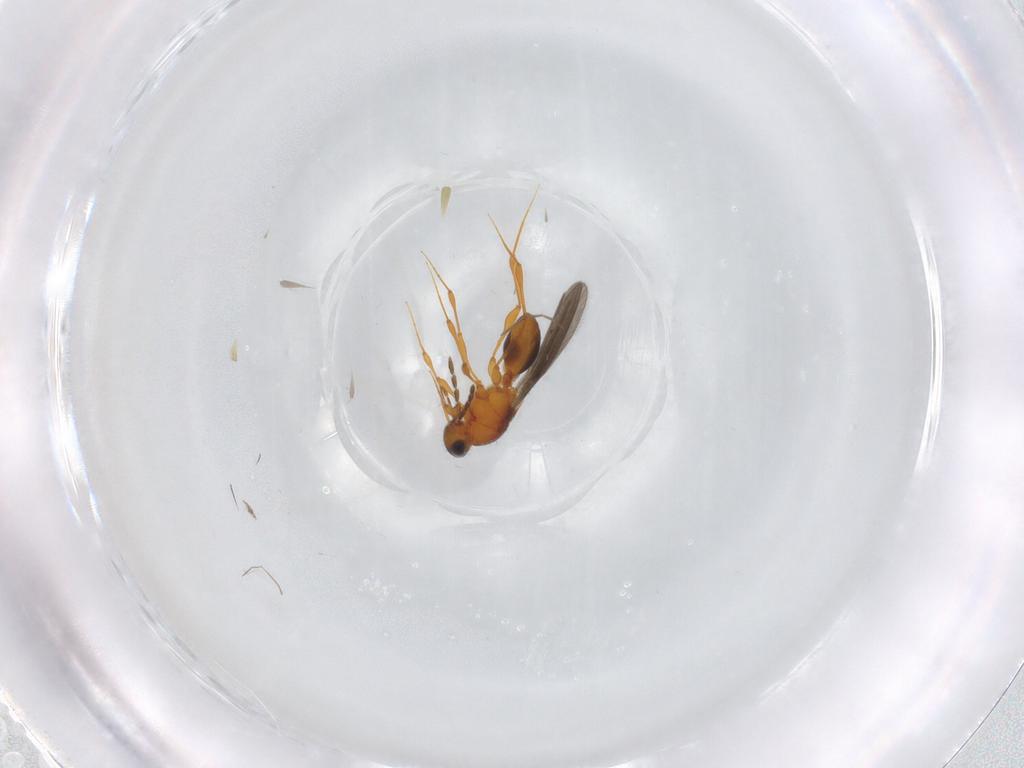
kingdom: Animalia
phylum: Arthropoda
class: Insecta
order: Hymenoptera
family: Platygastridae
